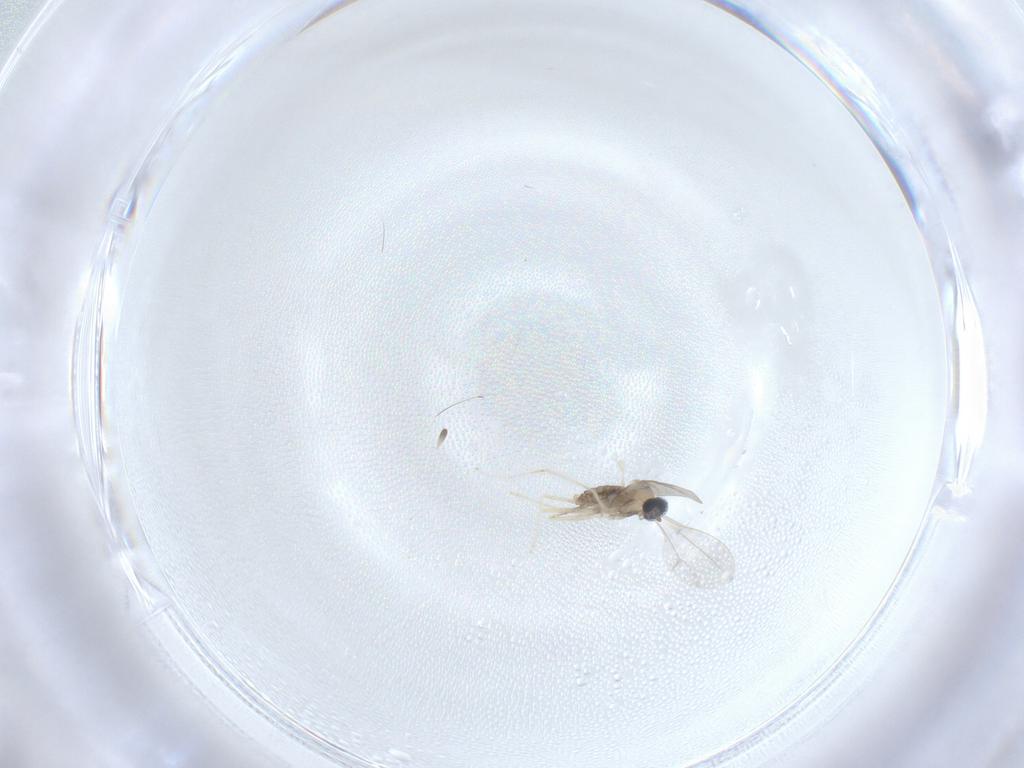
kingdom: Animalia
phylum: Arthropoda
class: Insecta
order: Diptera
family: Cecidomyiidae
